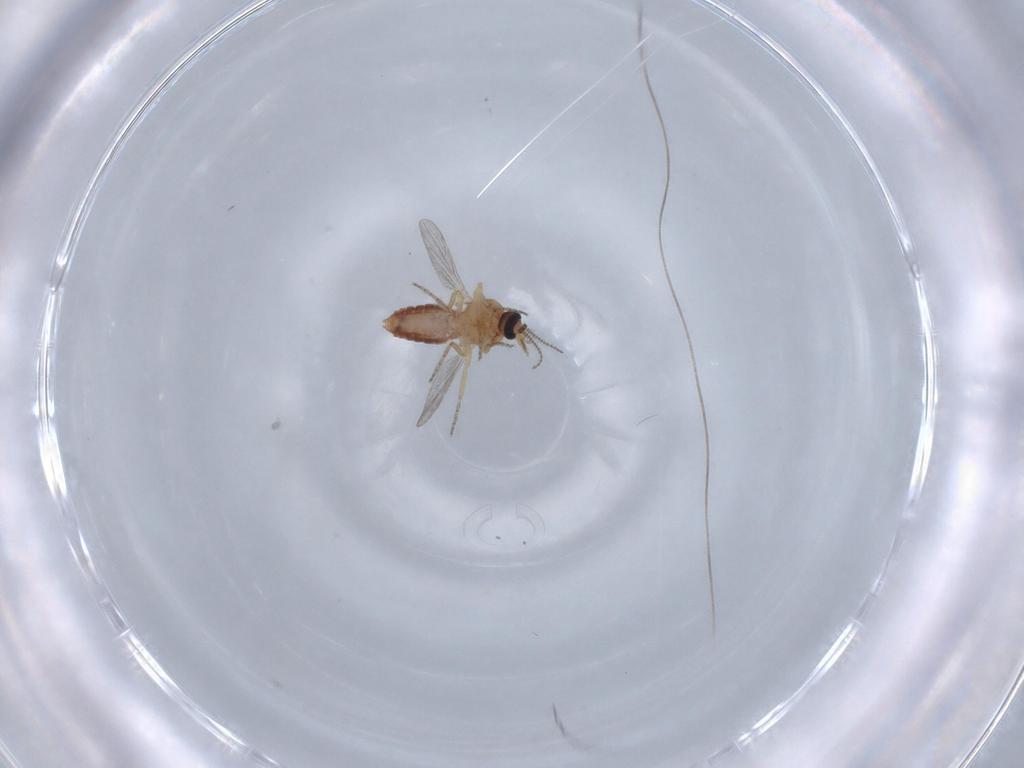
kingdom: Animalia
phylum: Arthropoda
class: Insecta
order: Diptera
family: Ceratopogonidae
